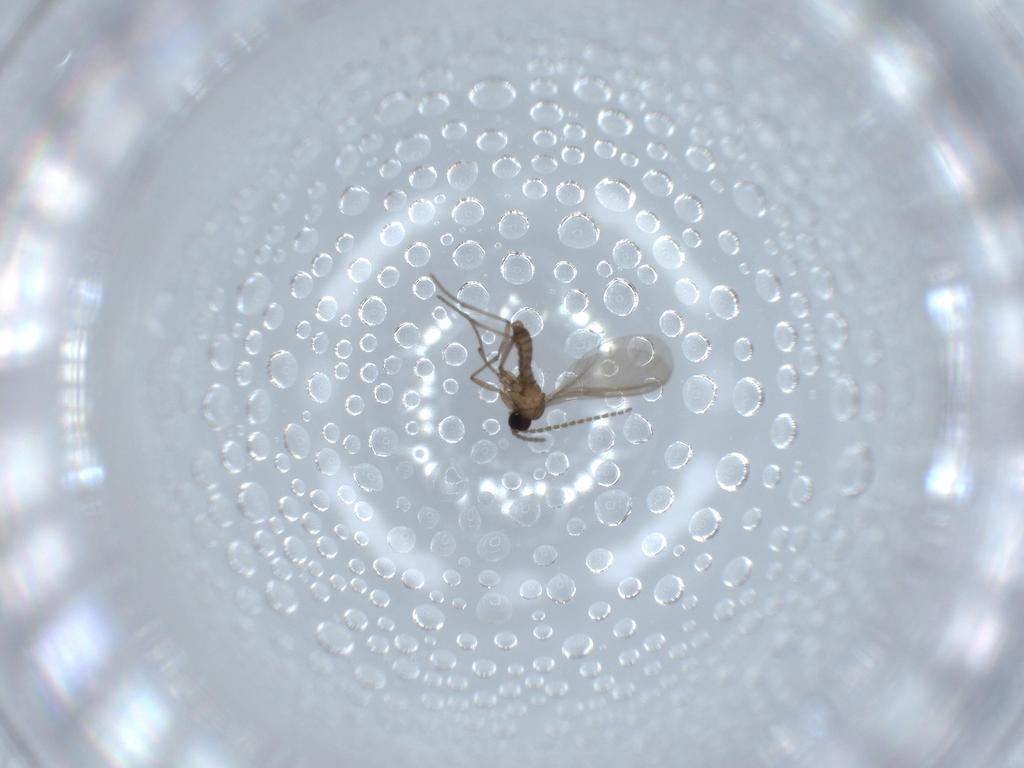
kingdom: Animalia
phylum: Arthropoda
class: Insecta
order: Diptera
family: Sciaridae
